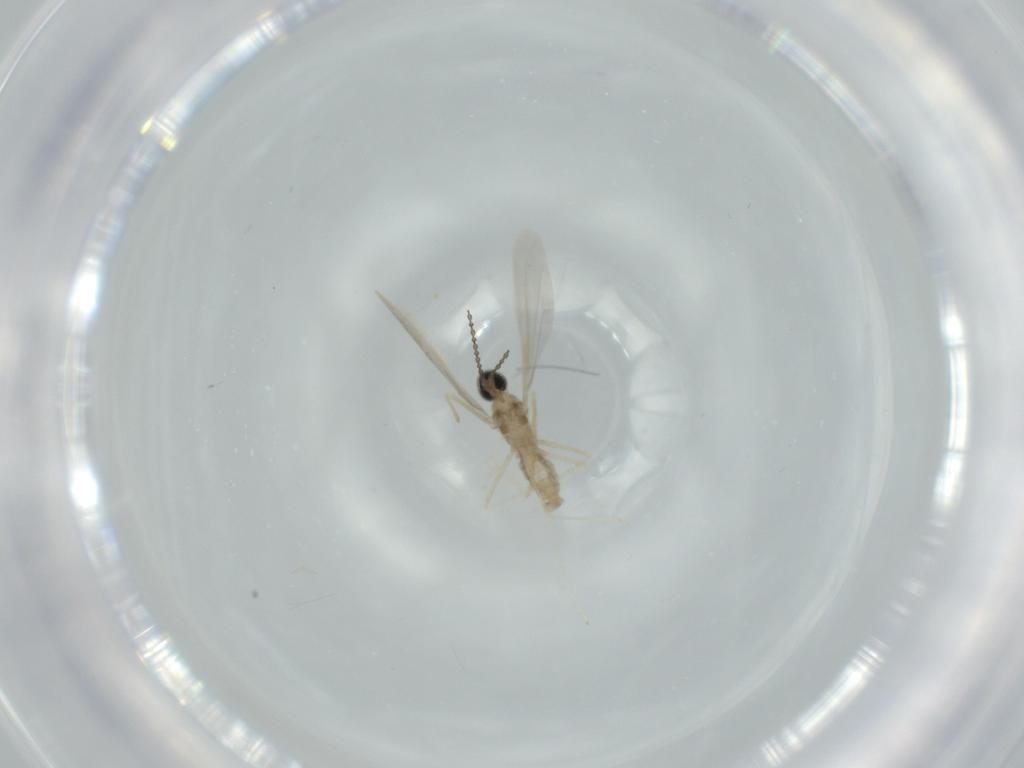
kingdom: Animalia
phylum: Arthropoda
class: Insecta
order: Diptera
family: Cecidomyiidae
